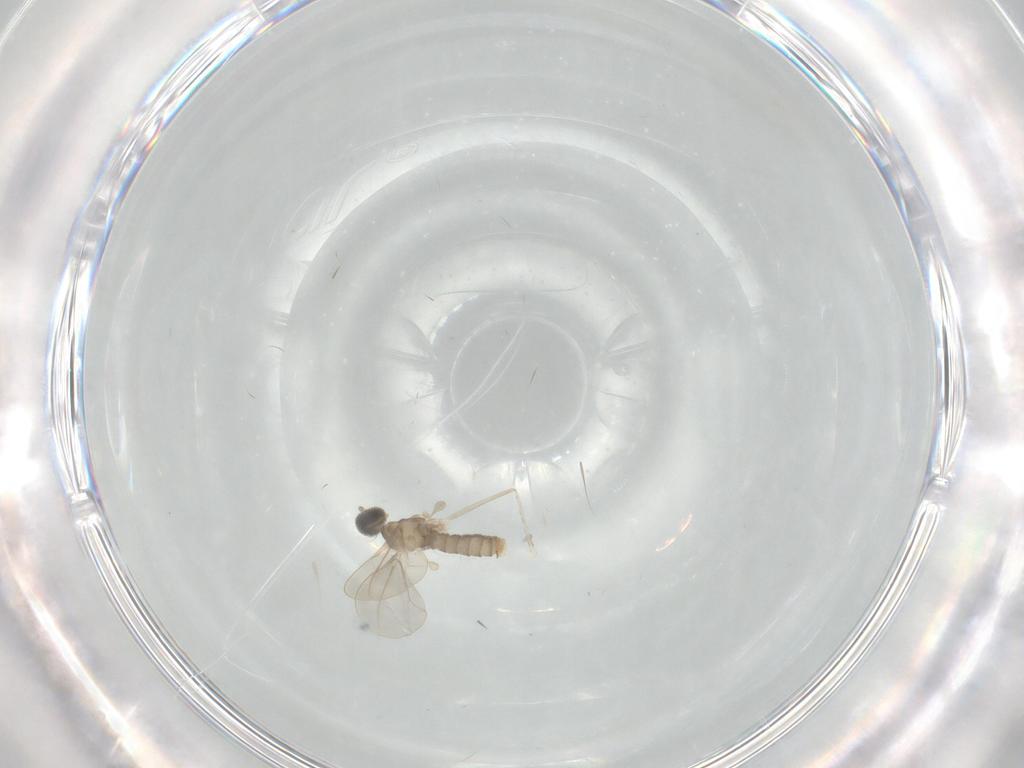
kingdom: Animalia
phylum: Arthropoda
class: Insecta
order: Diptera
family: Cecidomyiidae
